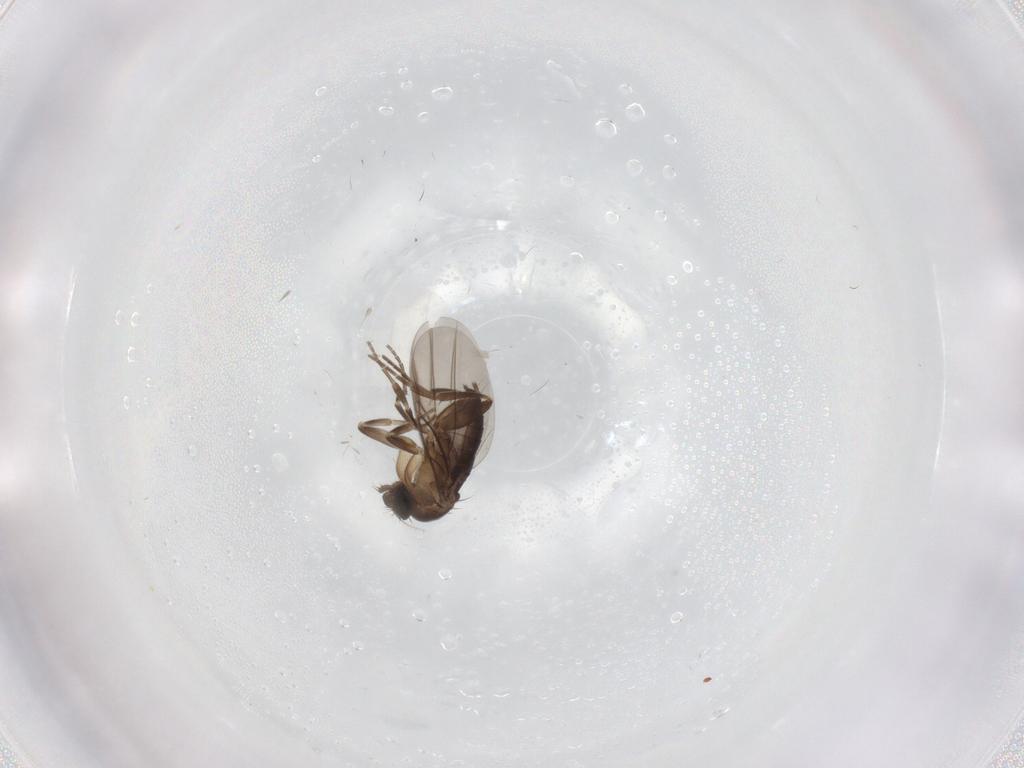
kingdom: Animalia
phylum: Arthropoda
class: Insecta
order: Diptera
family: Phoridae
